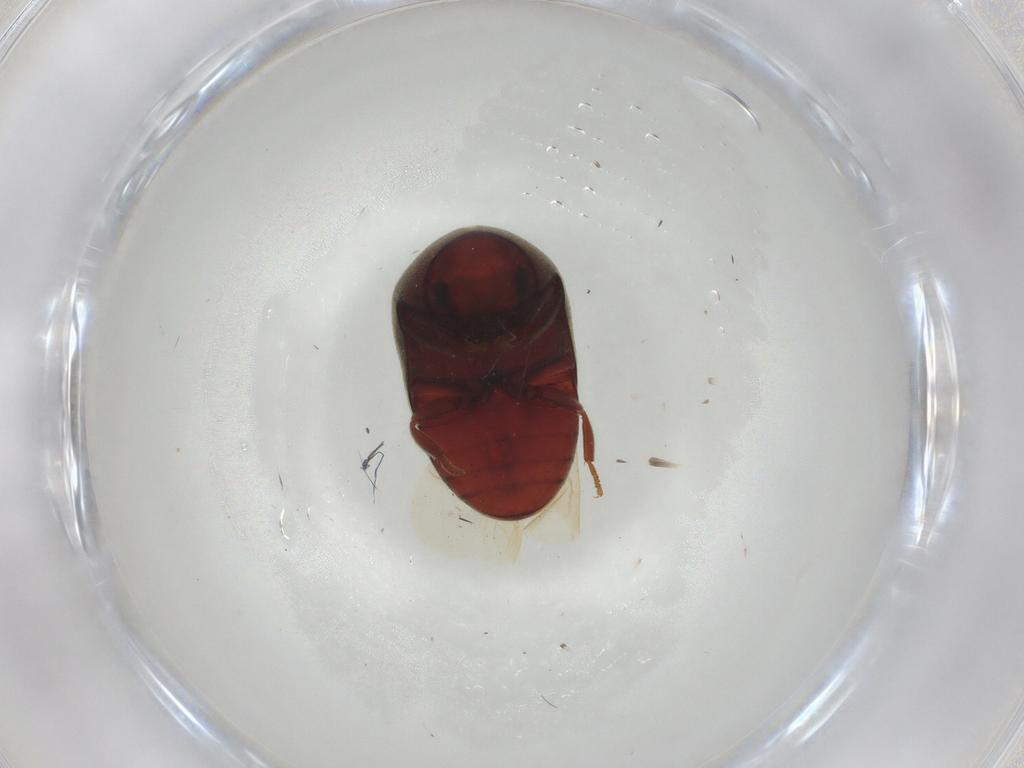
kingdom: Animalia
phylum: Arthropoda
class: Insecta
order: Coleoptera
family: Ptinidae
